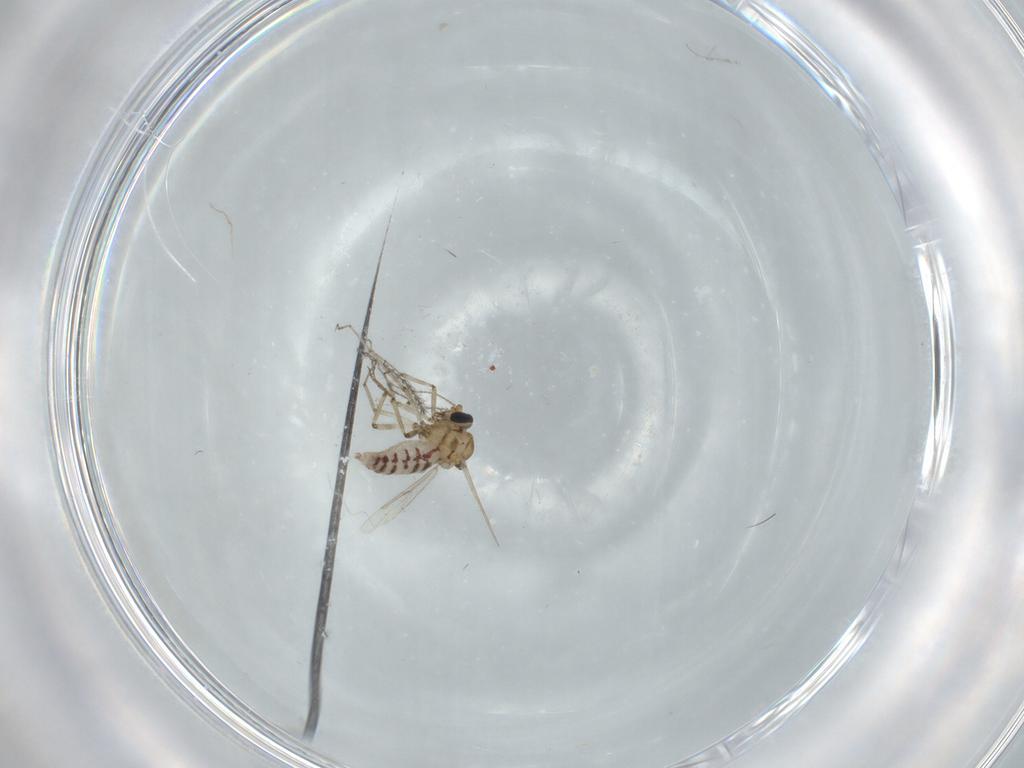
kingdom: Animalia
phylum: Arthropoda
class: Insecta
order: Diptera
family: Ceratopogonidae
